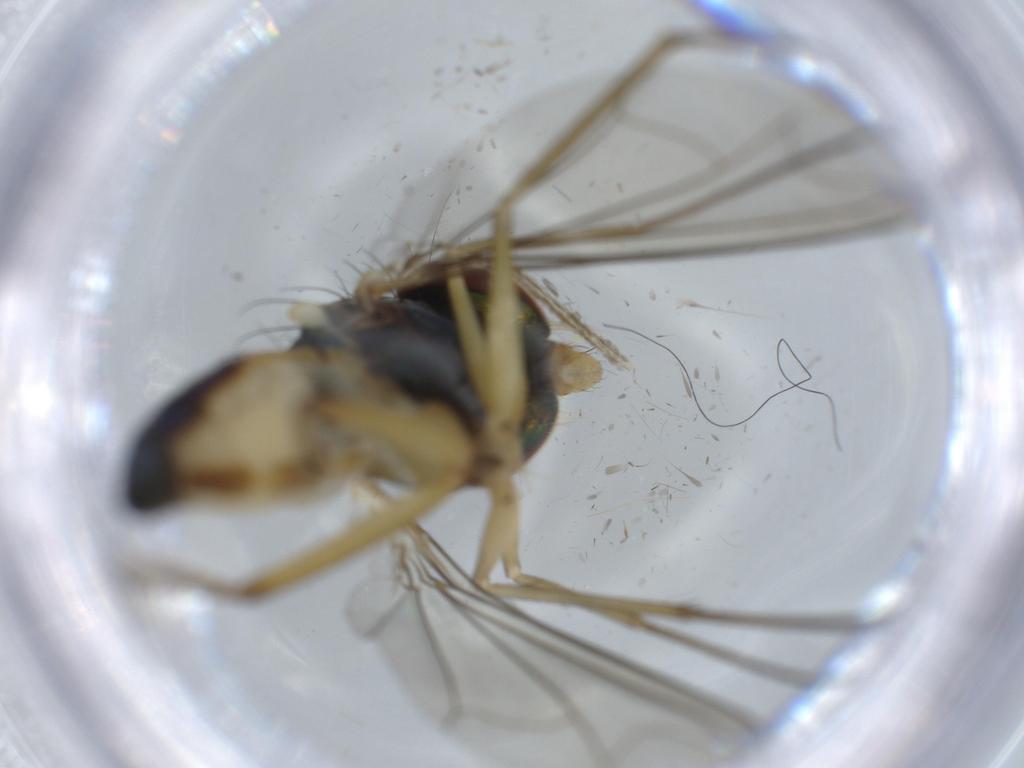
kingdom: Animalia
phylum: Arthropoda
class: Insecta
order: Diptera
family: Dolichopodidae
